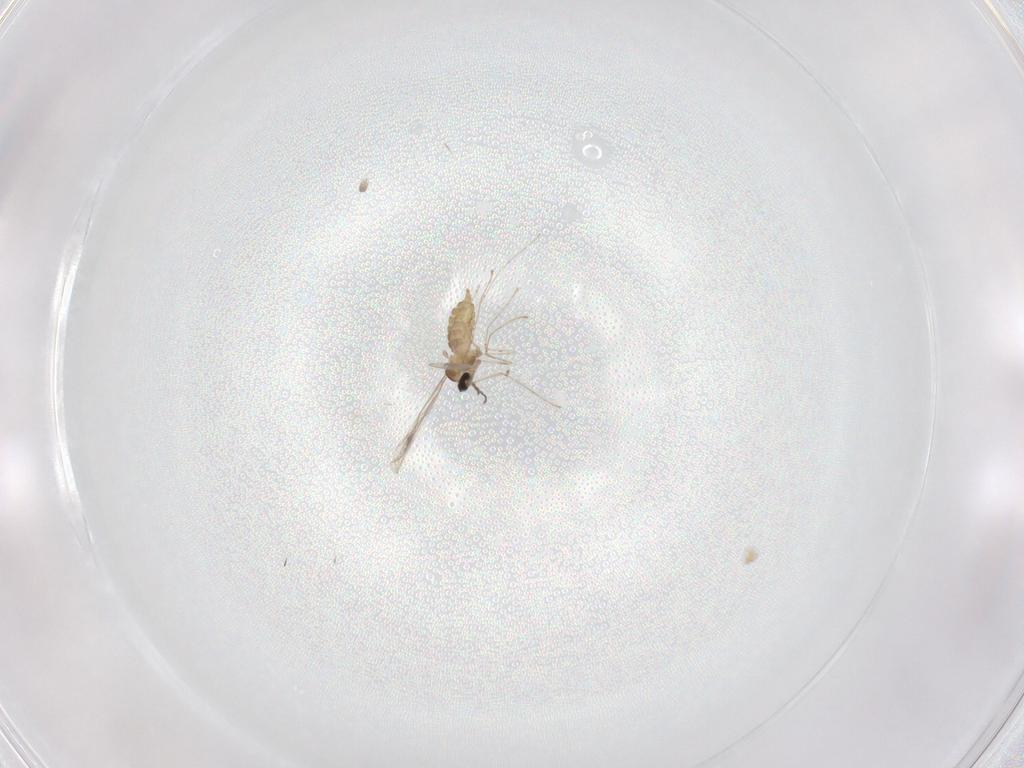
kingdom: Animalia
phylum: Arthropoda
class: Insecta
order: Diptera
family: Cecidomyiidae
